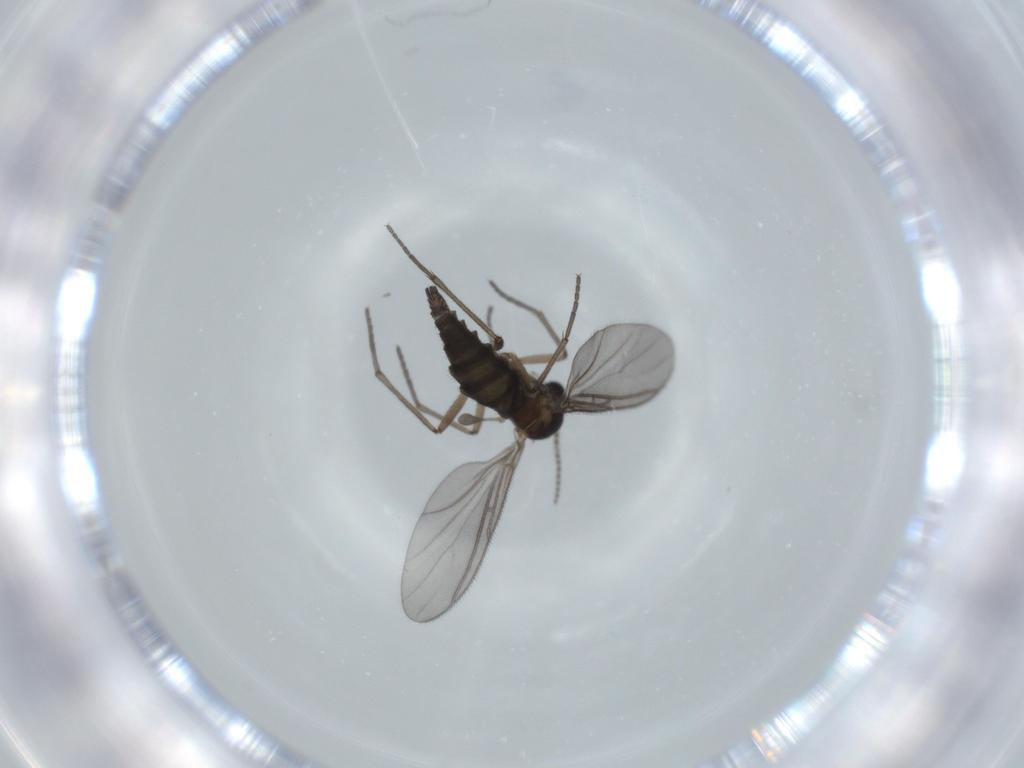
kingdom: Animalia
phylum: Arthropoda
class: Insecta
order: Diptera
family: Sciaridae
